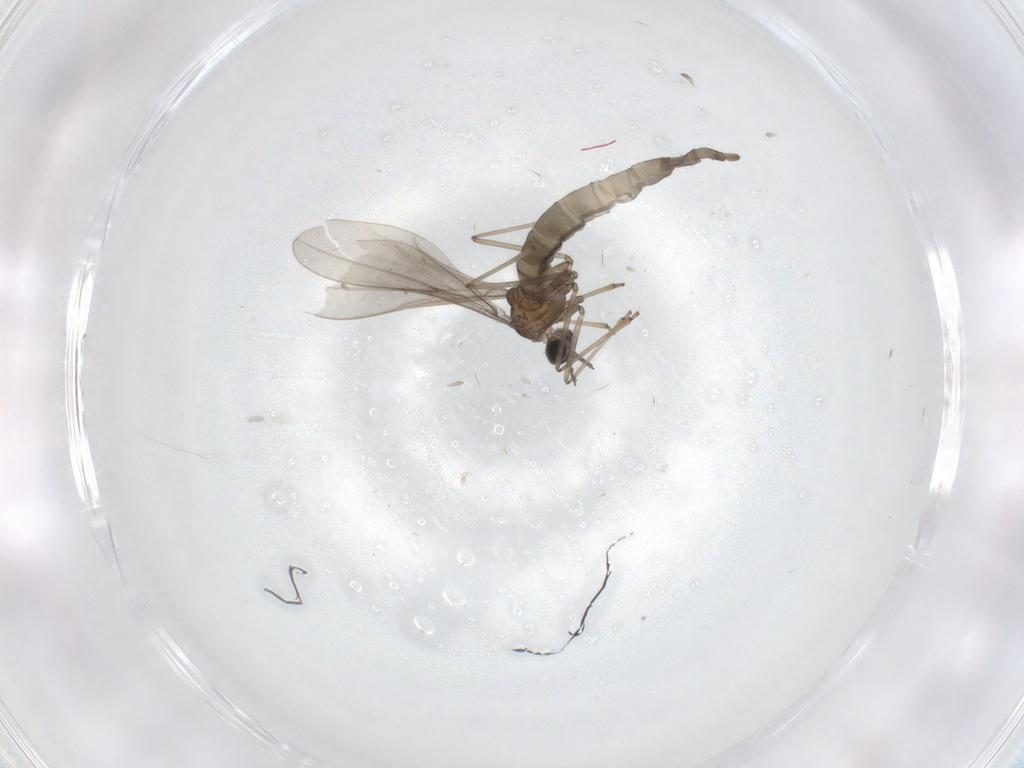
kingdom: Animalia
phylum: Arthropoda
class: Insecta
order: Diptera
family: Sciaridae
